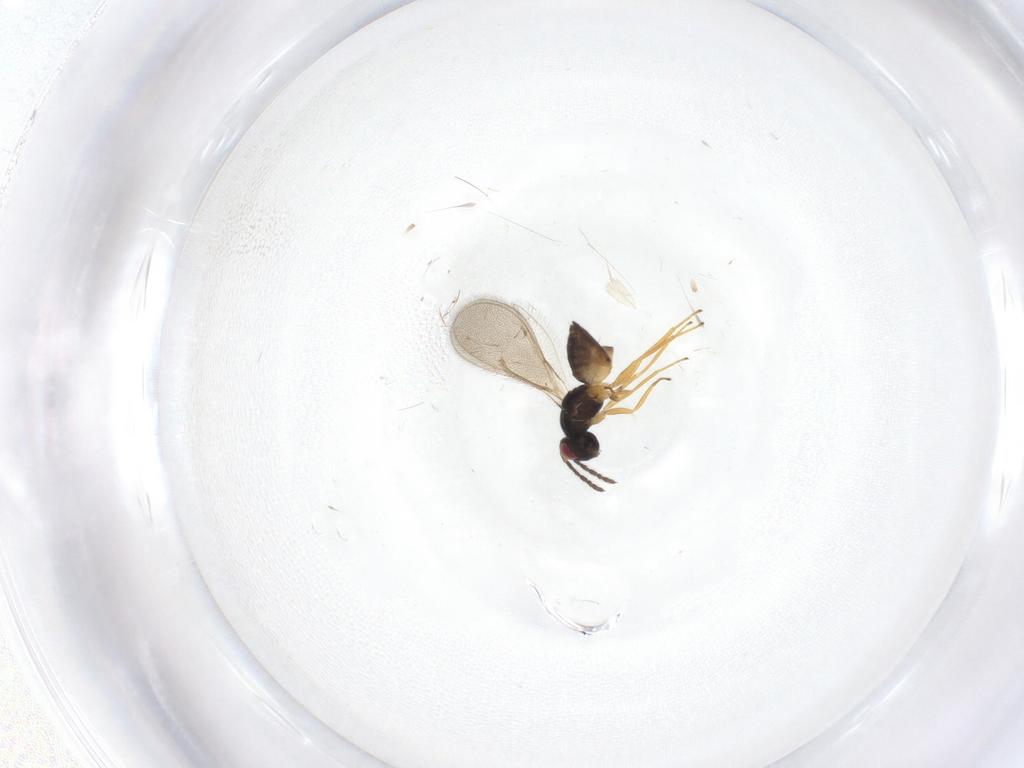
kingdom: Animalia
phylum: Arthropoda
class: Insecta
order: Hymenoptera
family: Eulophidae
